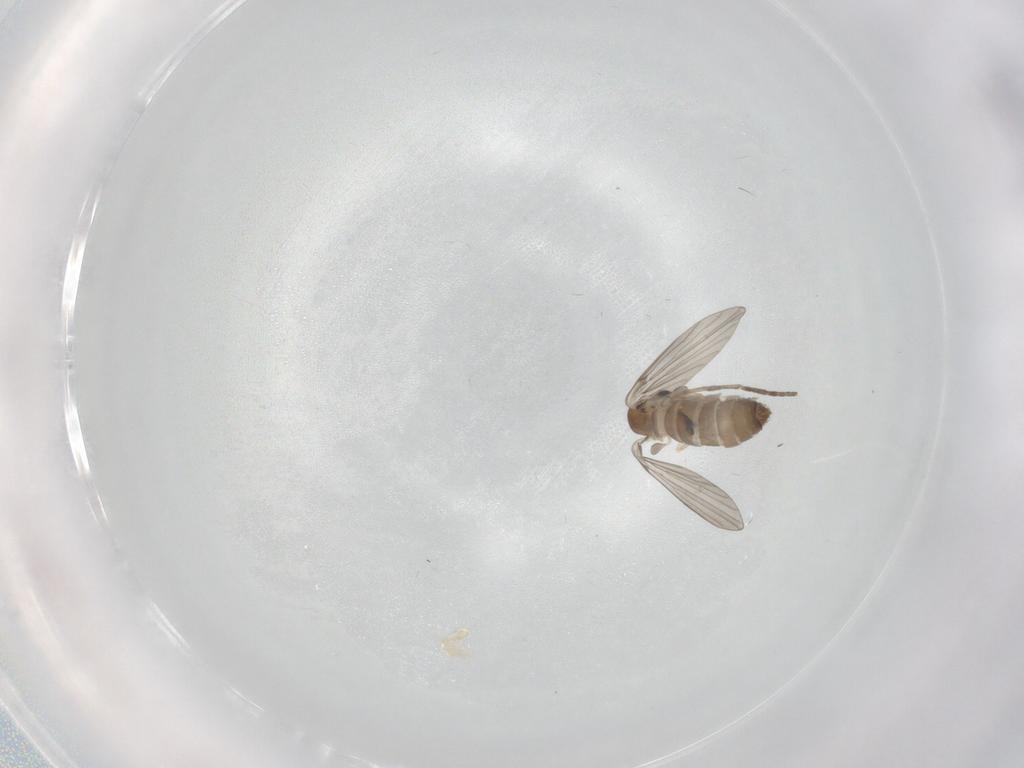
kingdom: Animalia
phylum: Arthropoda
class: Insecta
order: Diptera
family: Cecidomyiidae
